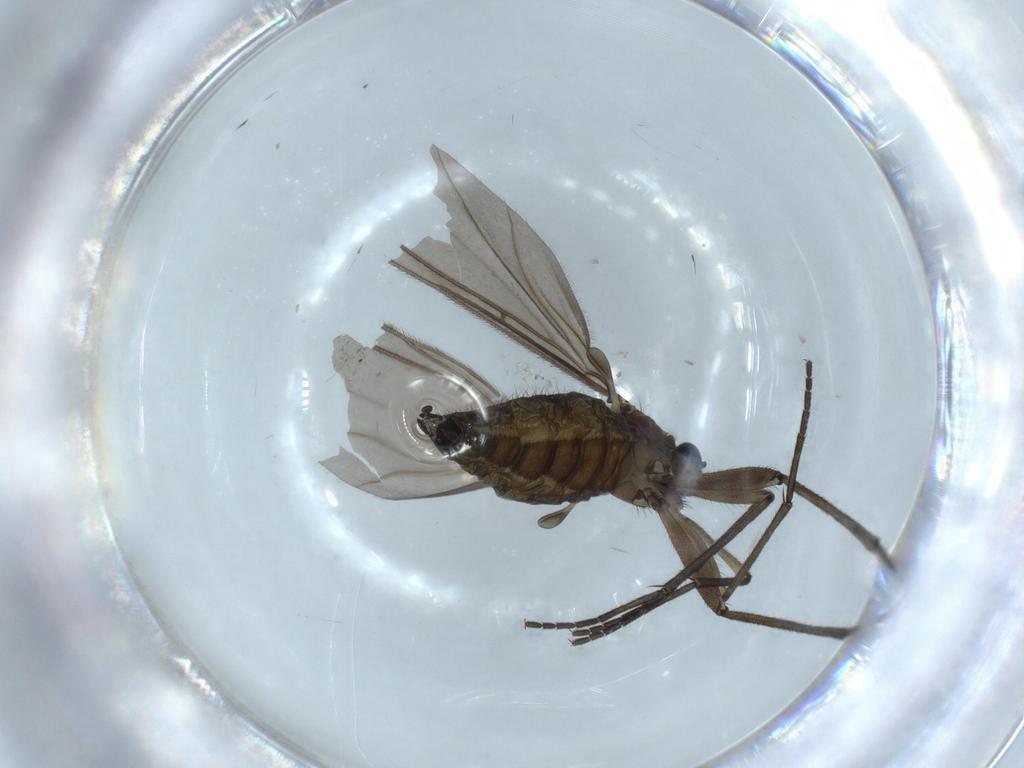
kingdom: Animalia
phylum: Arthropoda
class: Insecta
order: Diptera
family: Sciaridae
